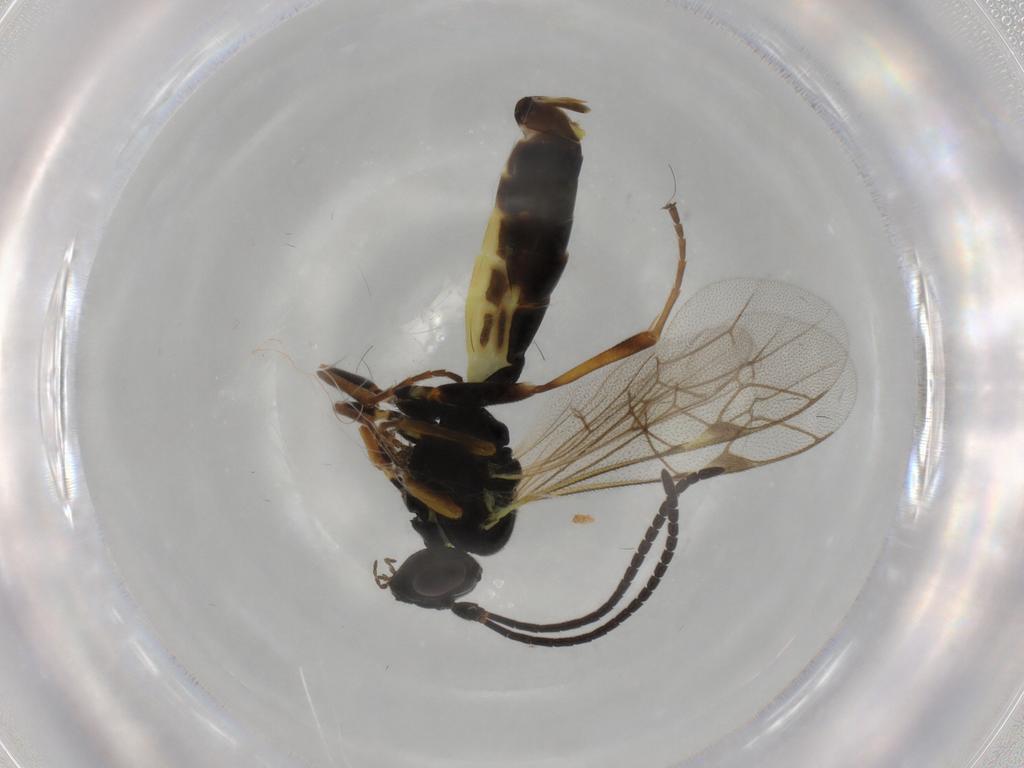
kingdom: Animalia
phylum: Arthropoda
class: Insecta
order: Hymenoptera
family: Ichneumonidae
